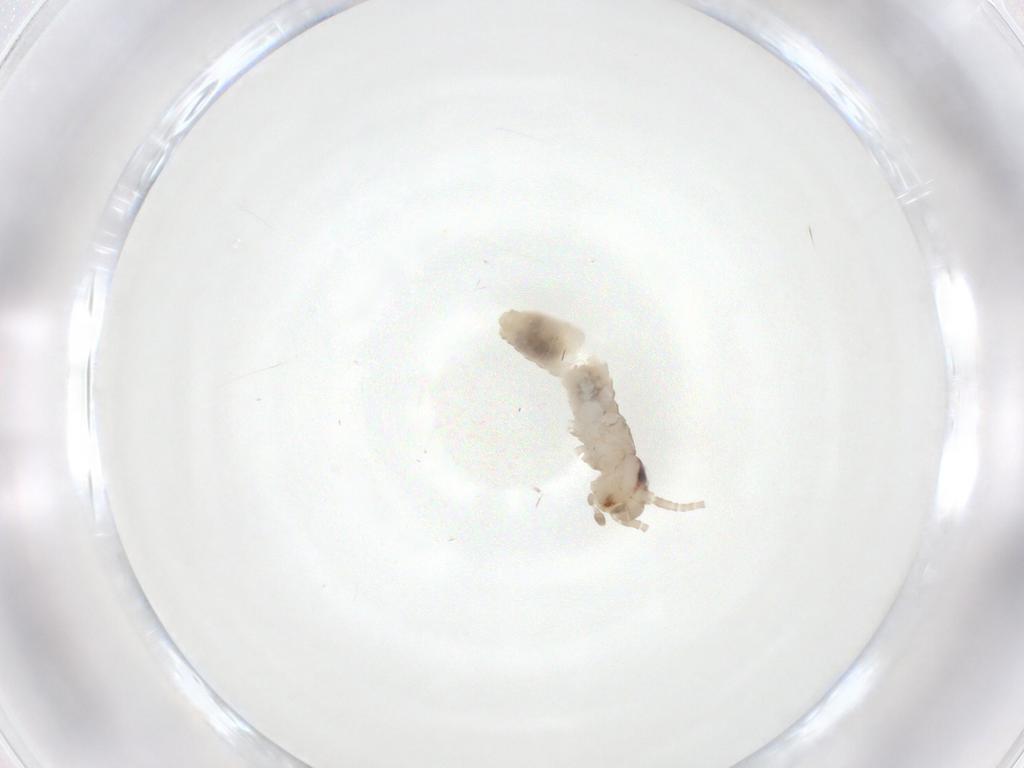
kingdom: Animalia
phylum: Arthropoda
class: Insecta
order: Orthoptera
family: Gryllidae
